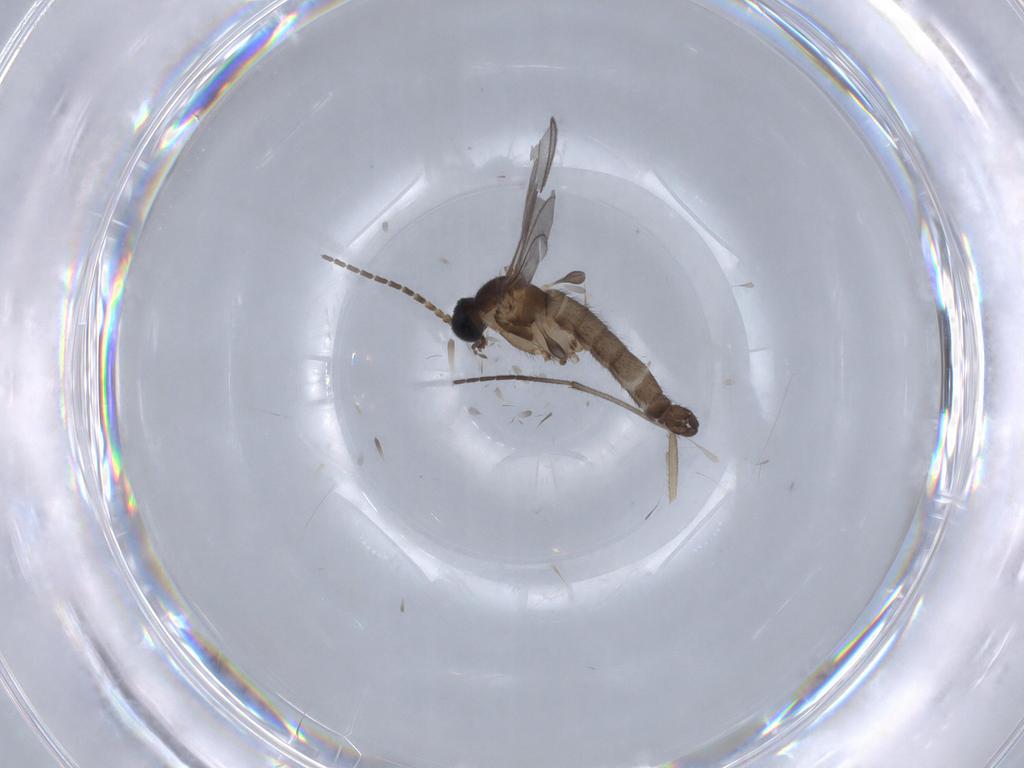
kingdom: Animalia
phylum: Arthropoda
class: Insecta
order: Diptera
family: Sciaridae
